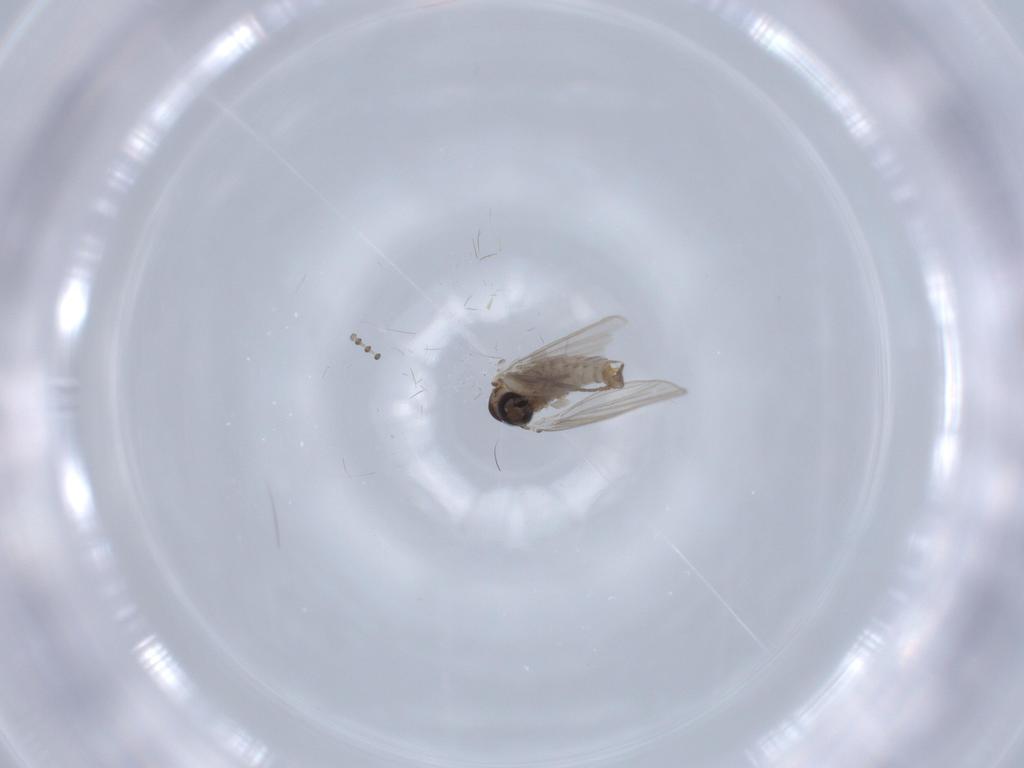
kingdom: Animalia
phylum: Arthropoda
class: Insecta
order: Diptera
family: Psychodidae
